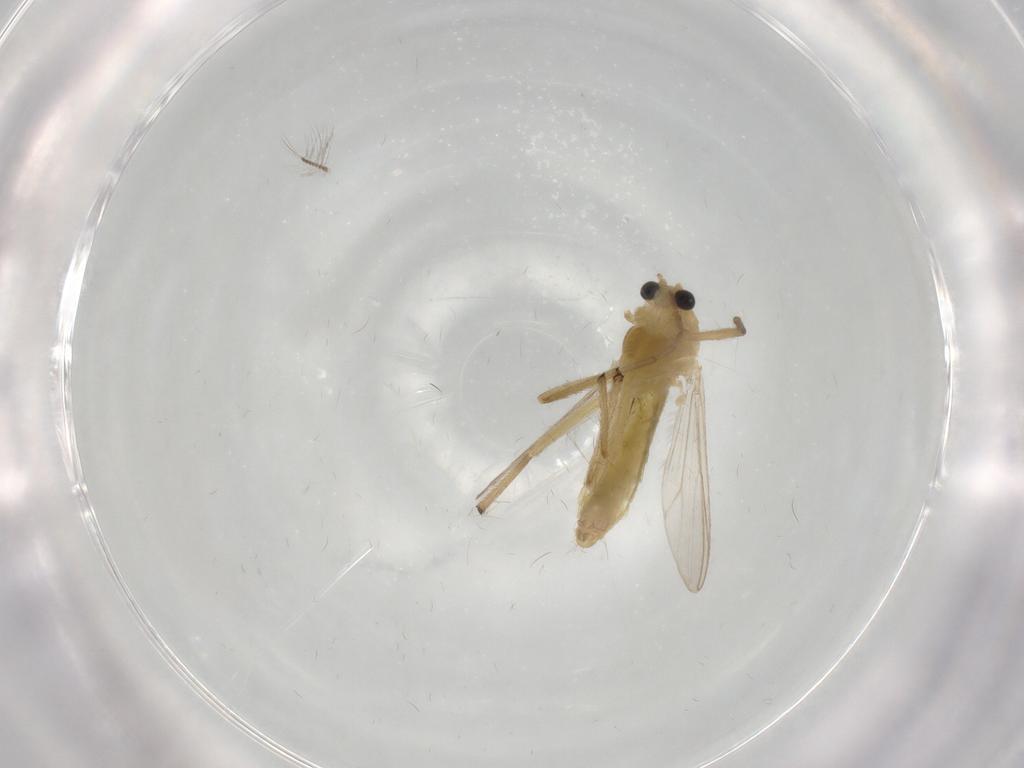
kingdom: Animalia
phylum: Arthropoda
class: Insecta
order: Diptera
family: Chironomidae
